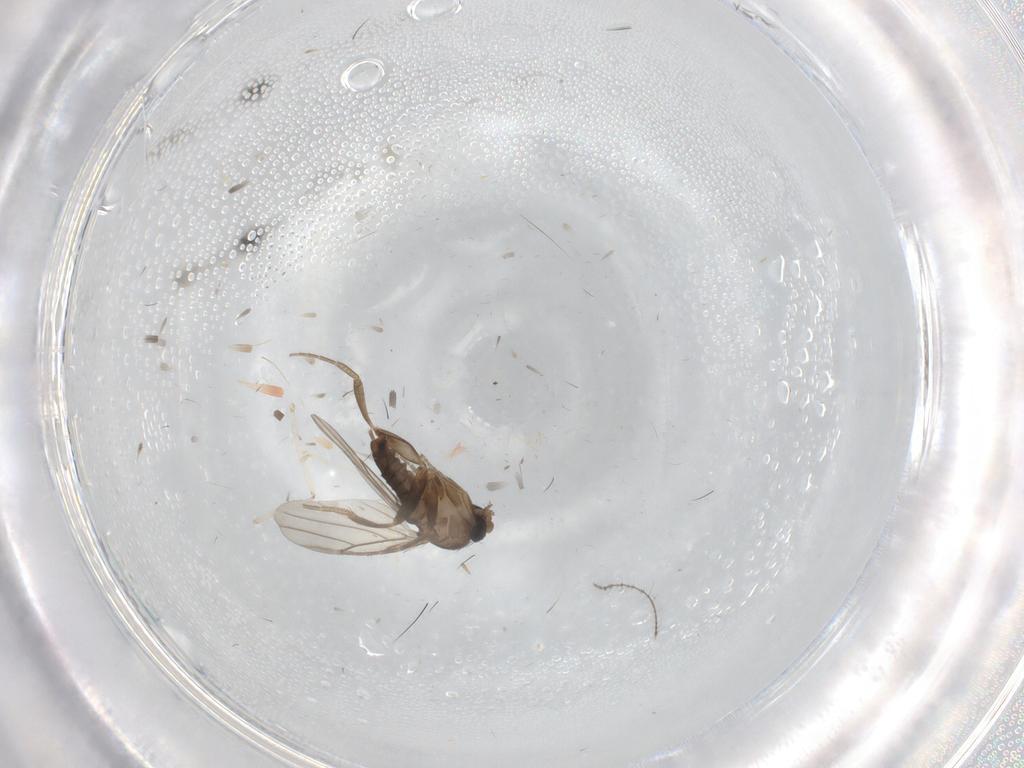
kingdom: Animalia
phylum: Arthropoda
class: Insecta
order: Diptera
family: Phoridae
